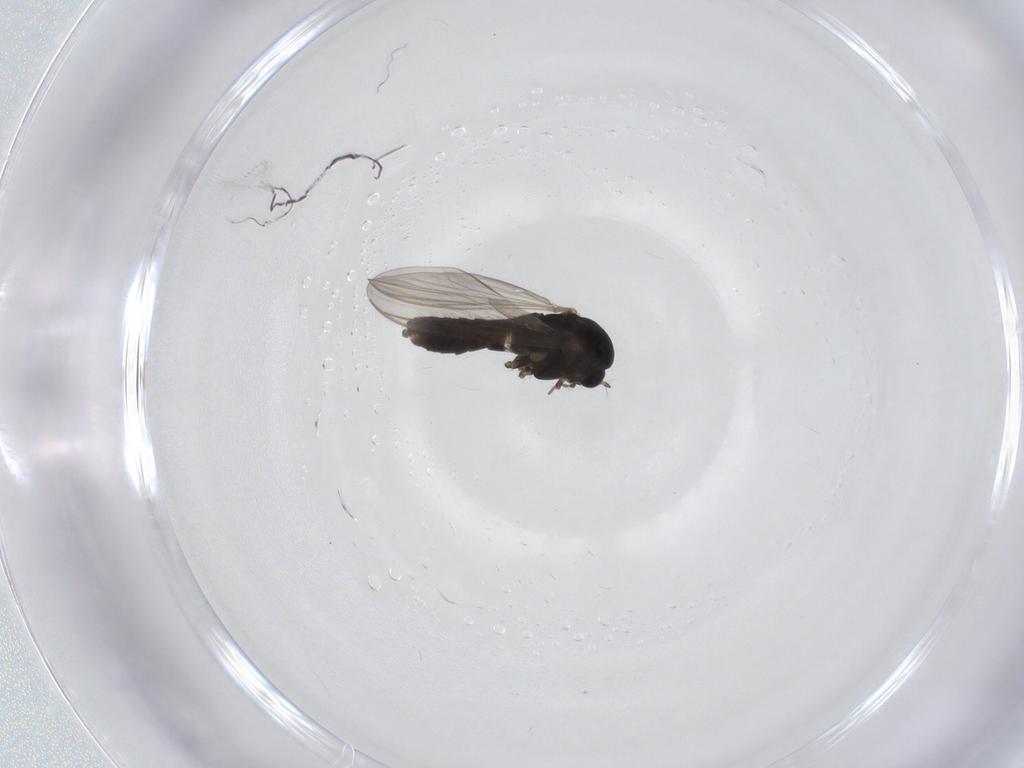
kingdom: Animalia
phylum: Arthropoda
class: Insecta
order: Diptera
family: Chironomidae
